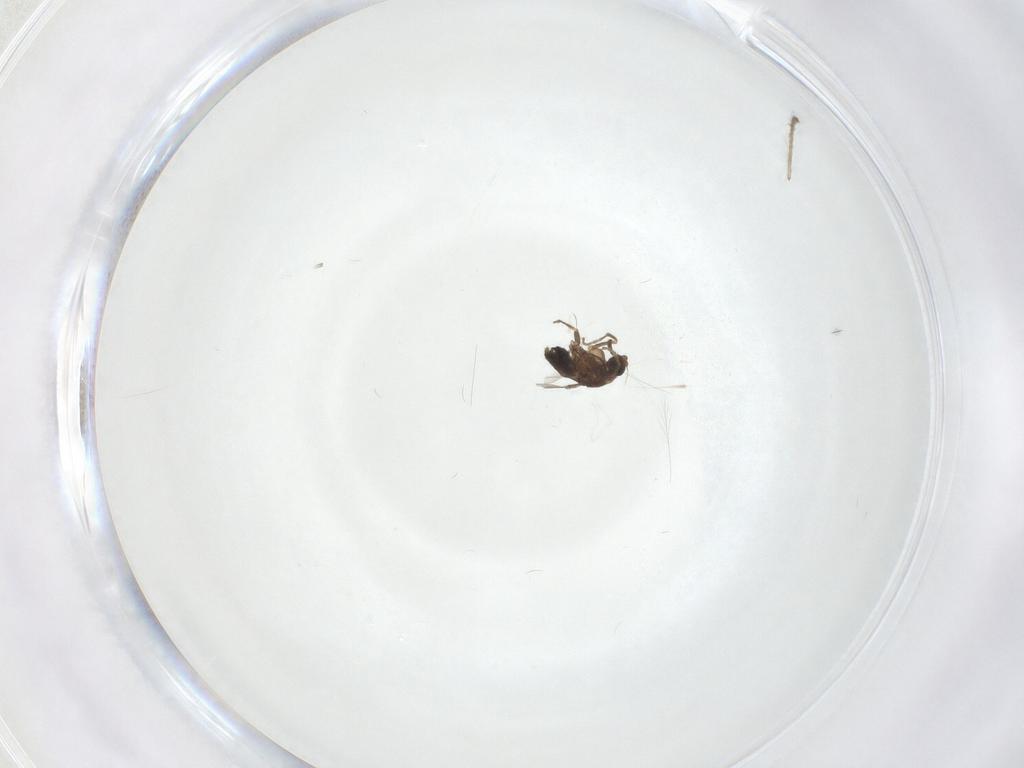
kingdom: Animalia
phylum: Arthropoda
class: Insecta
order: Diptera
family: Chironomidae
